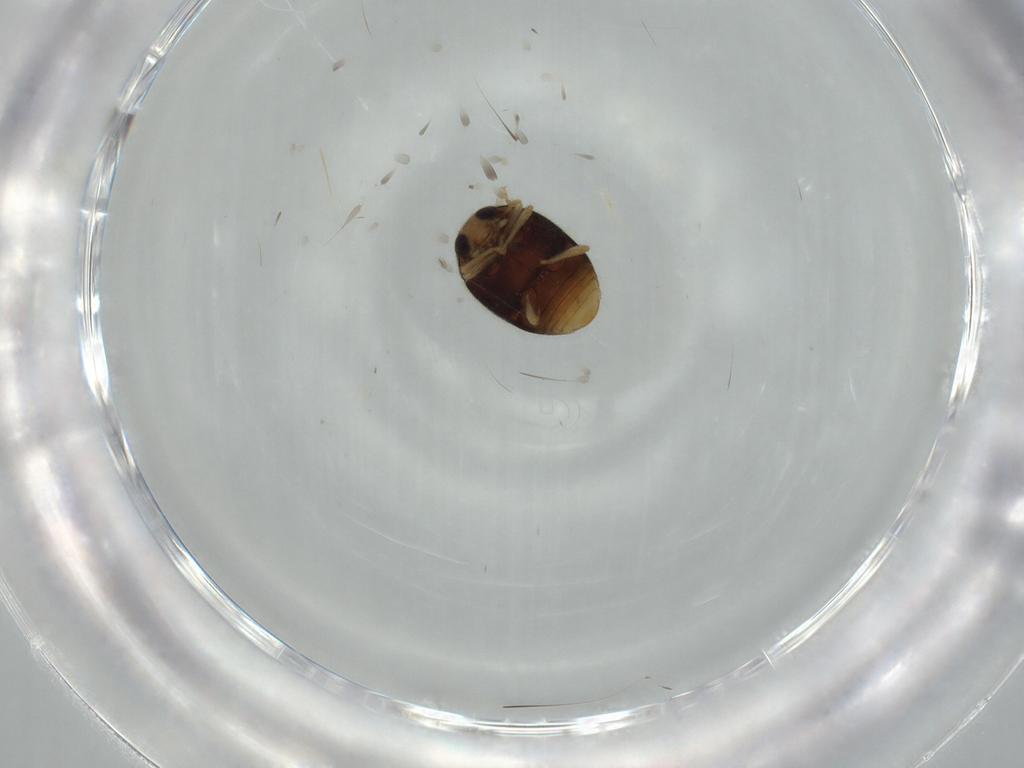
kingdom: Animalia
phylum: Arthropoda
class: Insecta
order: Coleoptera
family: Coccinellidae
